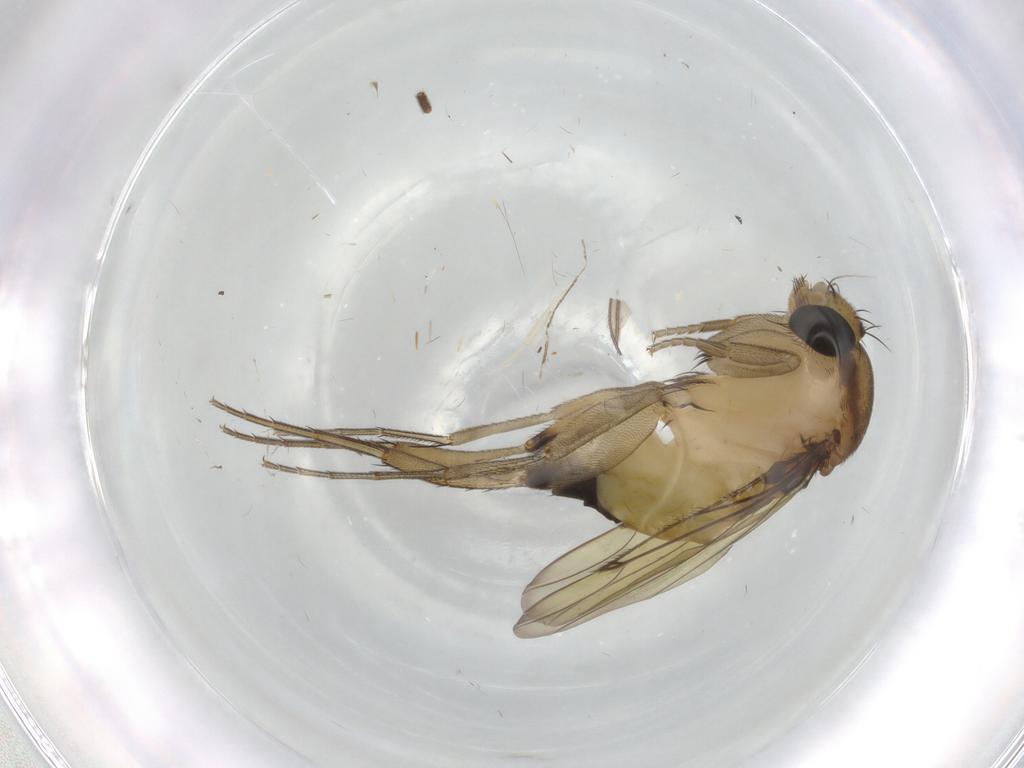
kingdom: Animalia
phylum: Arthropoda
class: Insecta
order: Diptera
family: Phoridae
